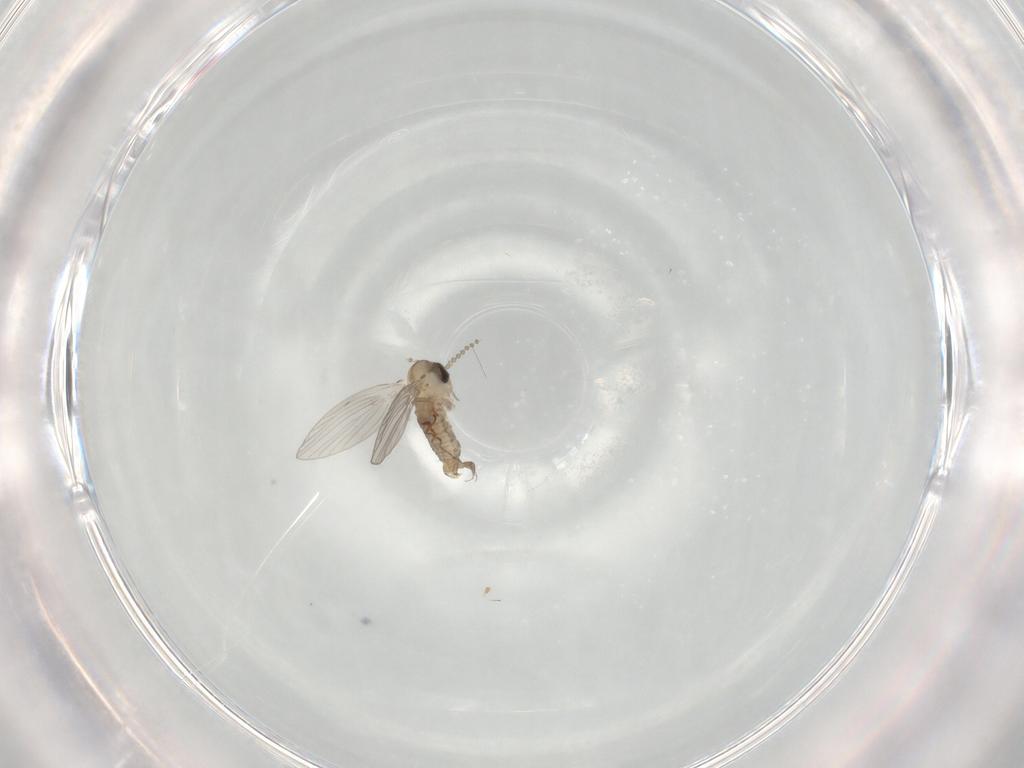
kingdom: Animalia
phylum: Arthropoda
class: Insecta
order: Diptera
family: Psychodidae
